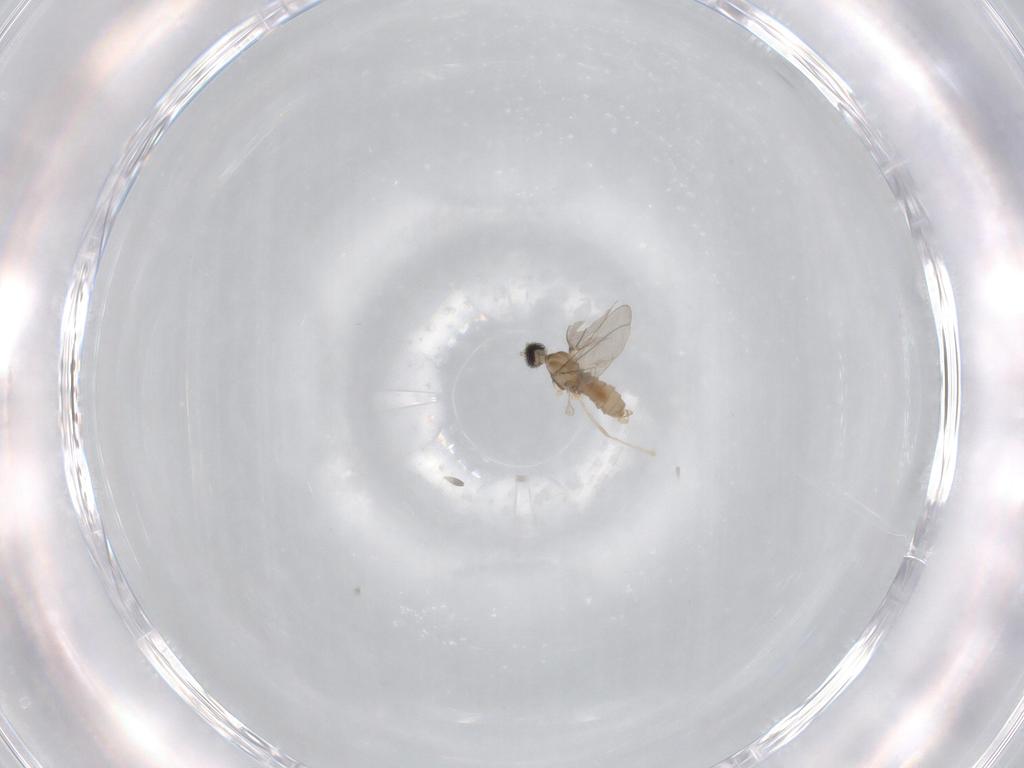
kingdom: Animalia
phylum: Arthropoda
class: Insecta
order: Diptera
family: Cecidomyiidae
